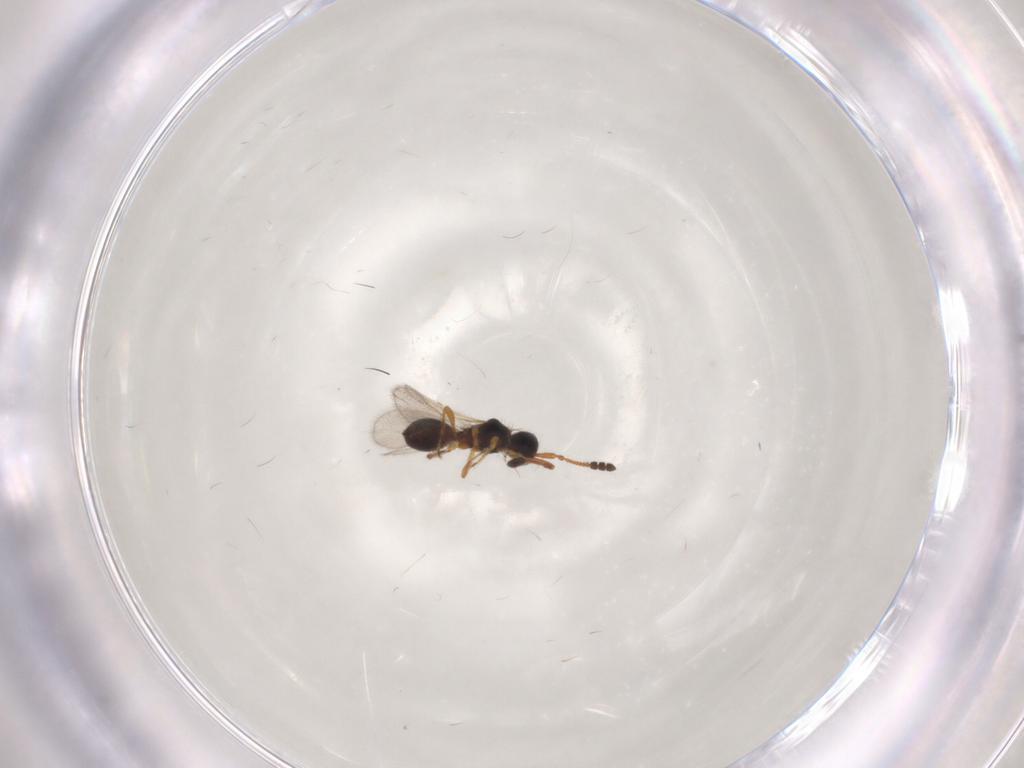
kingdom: Animalia
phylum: Arthropoda
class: Insecta
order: Hymenoptera
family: Diapriidae
